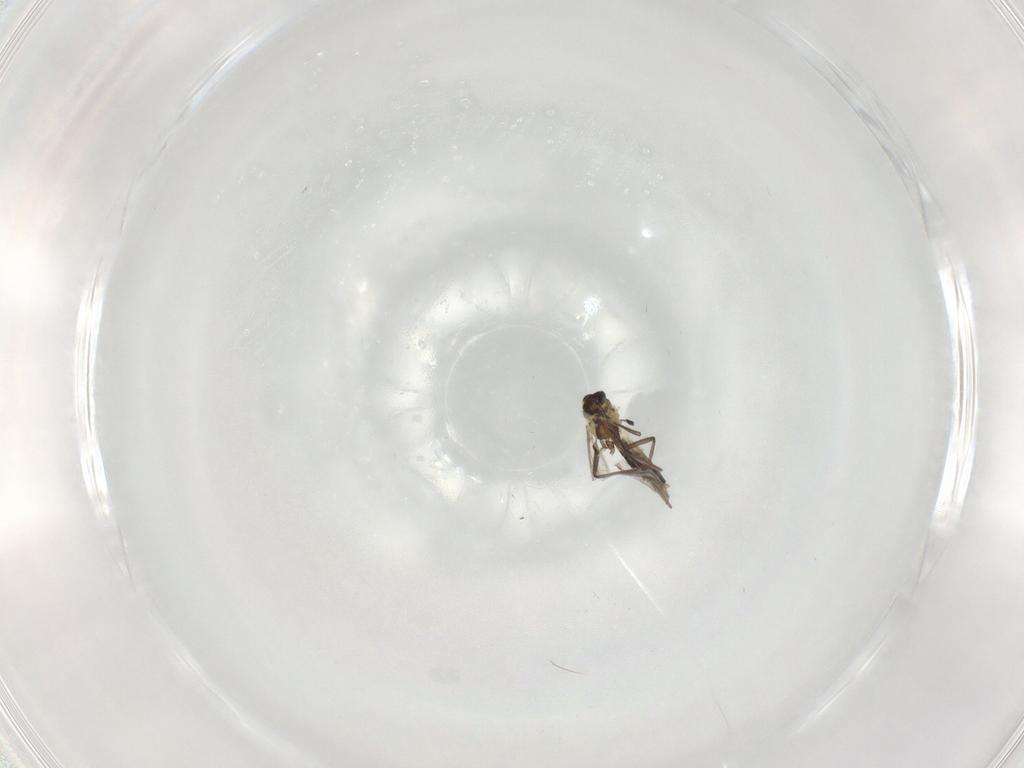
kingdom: Animalia
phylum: Arthropoda
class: Insecta
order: Diptera
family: Chironomidae
